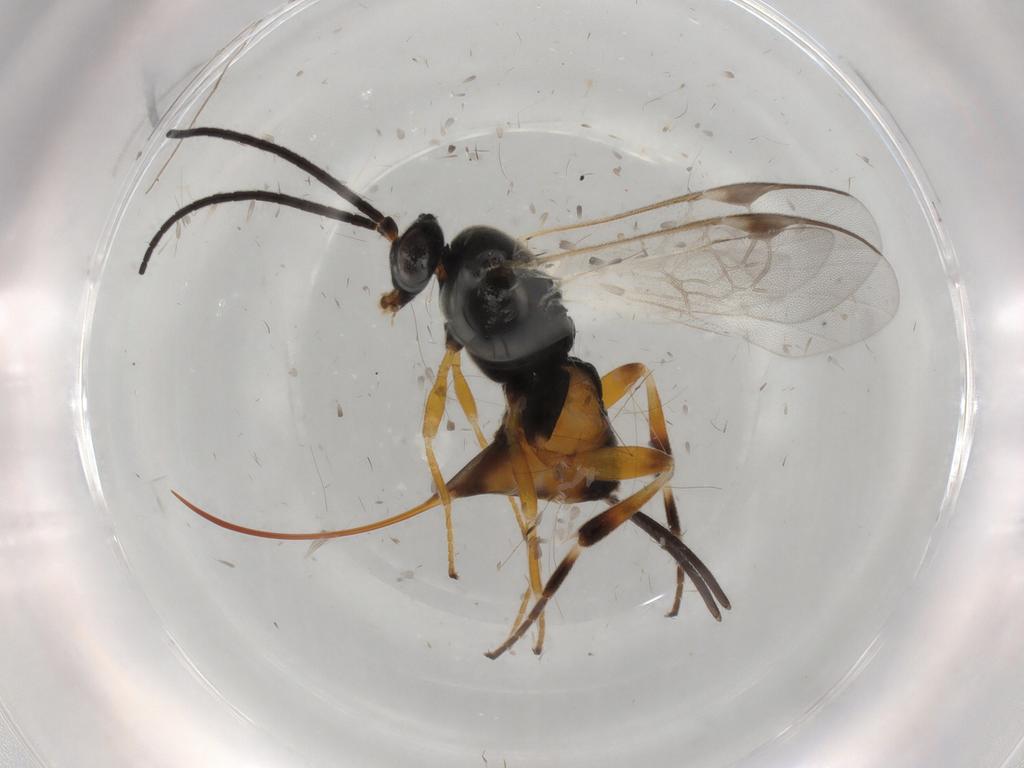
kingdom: Animalia
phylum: Arthropoda
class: Insecta
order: Hymenoptera
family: Braconidae
